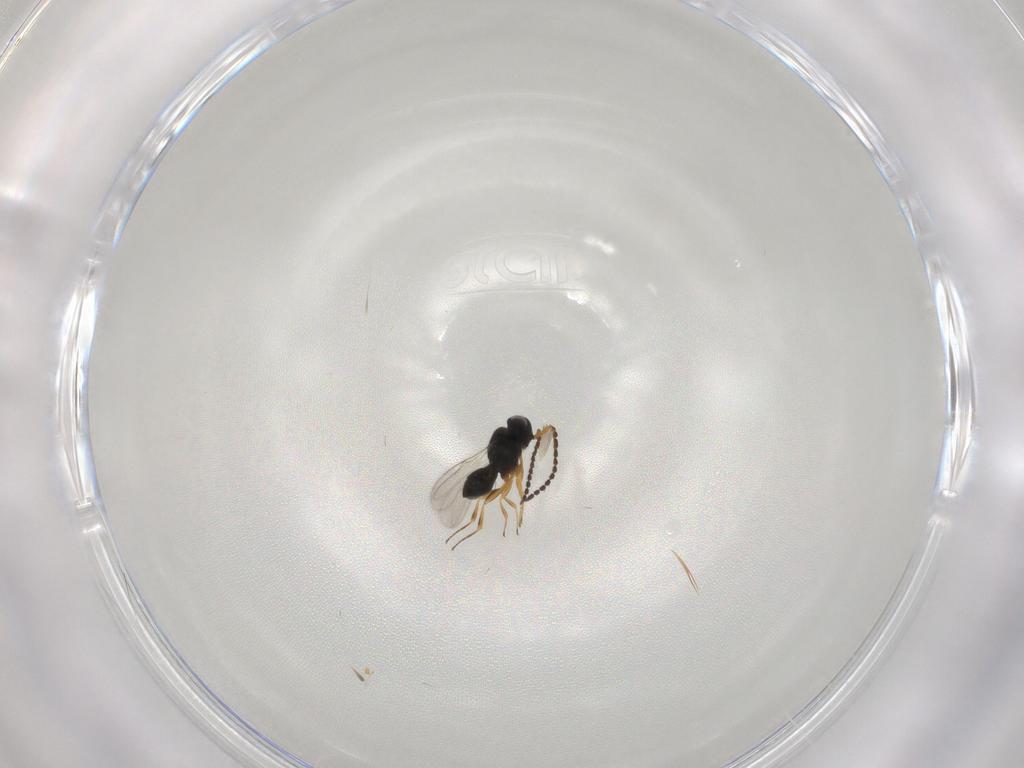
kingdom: Animalia
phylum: Arthropoda
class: Insecta
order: Hymenoptera
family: Scelionidae
